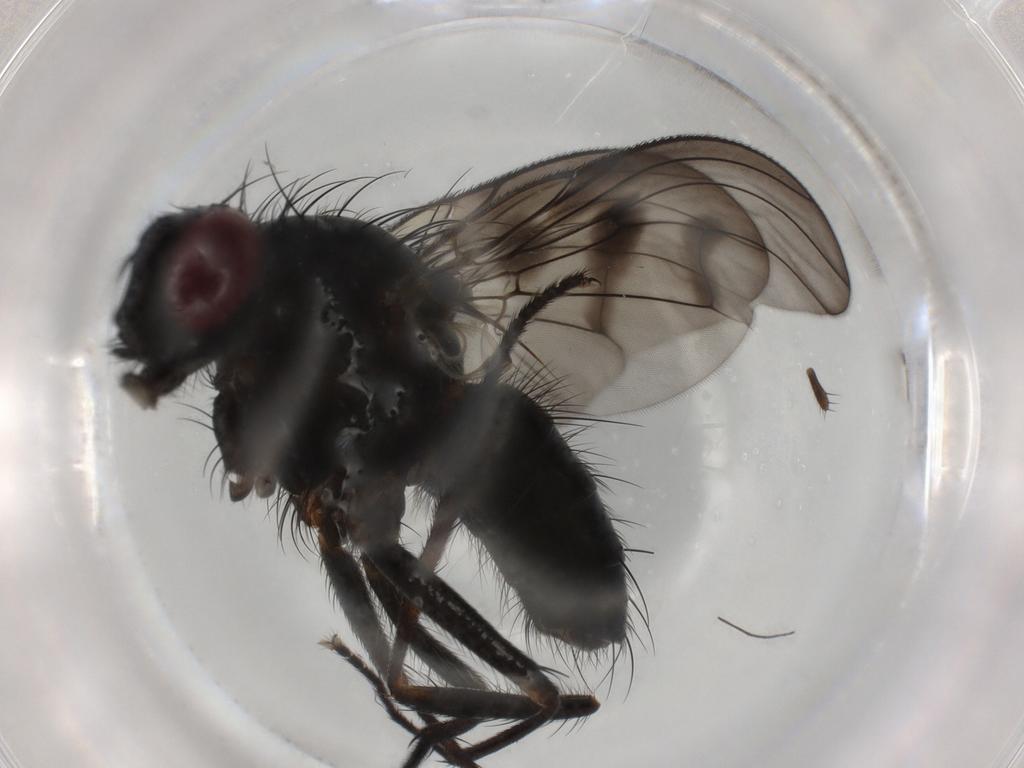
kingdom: Animalia
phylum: Arthropoda
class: Insecta
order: Diptera
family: Muscidae
